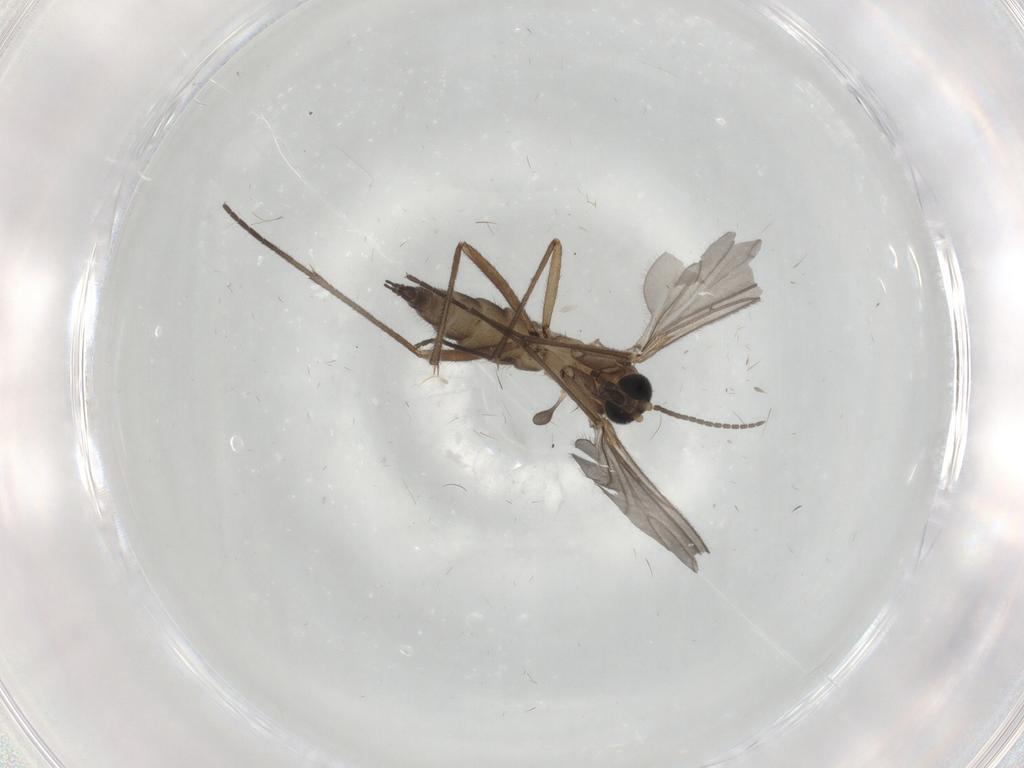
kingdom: Animalia
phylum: Arthropoda
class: Insecta
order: Diptera
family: Sciaridae
